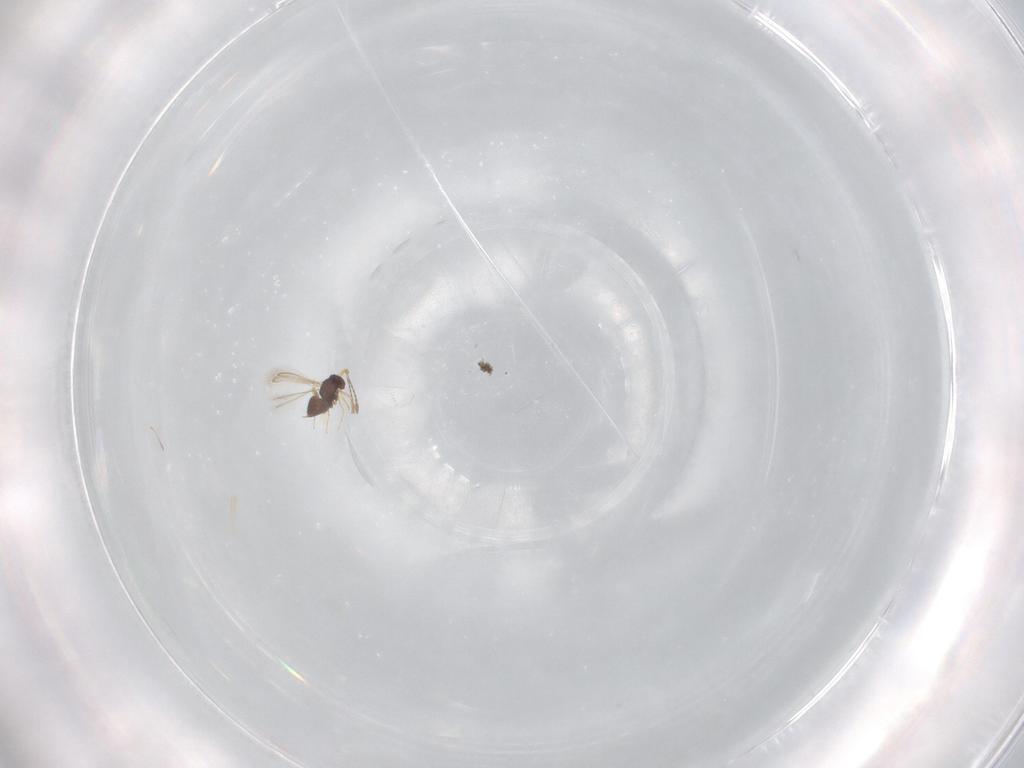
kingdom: Animalia
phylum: Arthropoda
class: Insecta
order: Hymenoptera
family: Mymaridae
